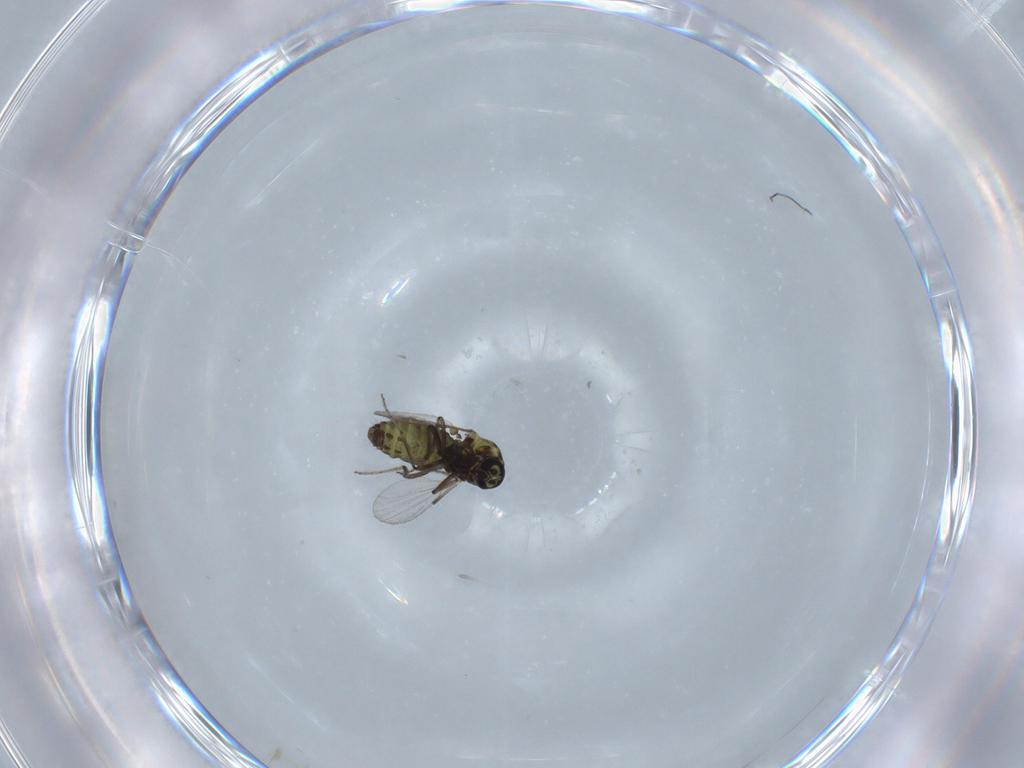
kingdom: Animalia
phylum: Arthropoda
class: Insecta
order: Diptera
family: Ceratopogonidae
